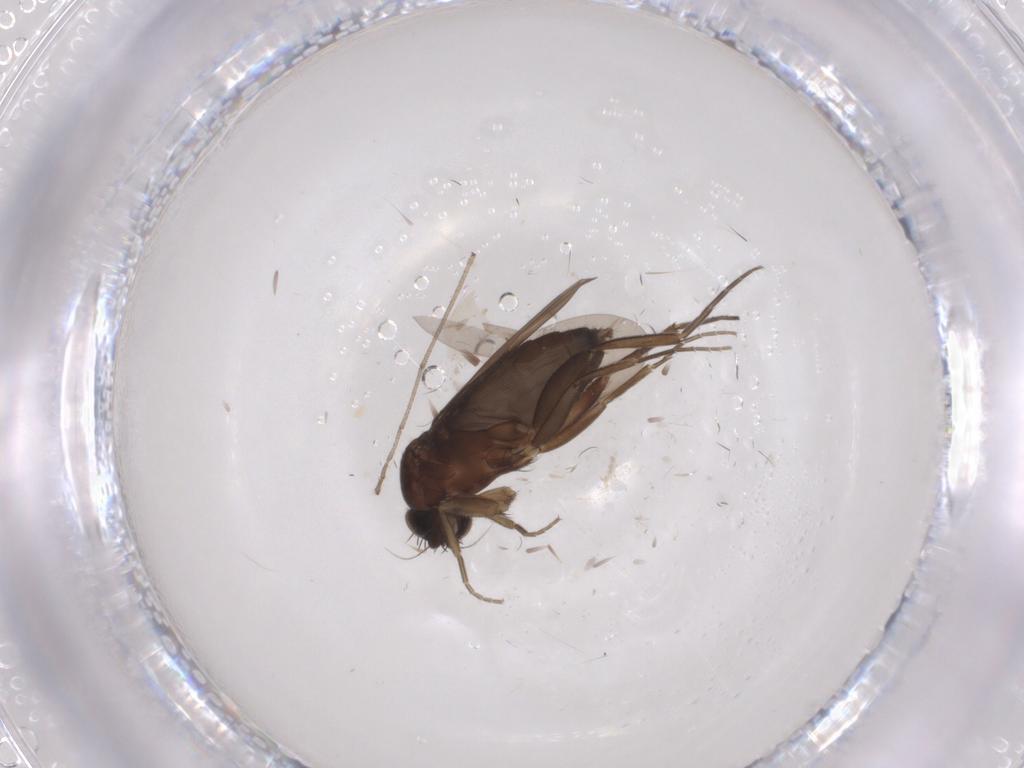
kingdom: Animalia
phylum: Arthropoda
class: Insecta
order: Diptera
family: Phoridae
